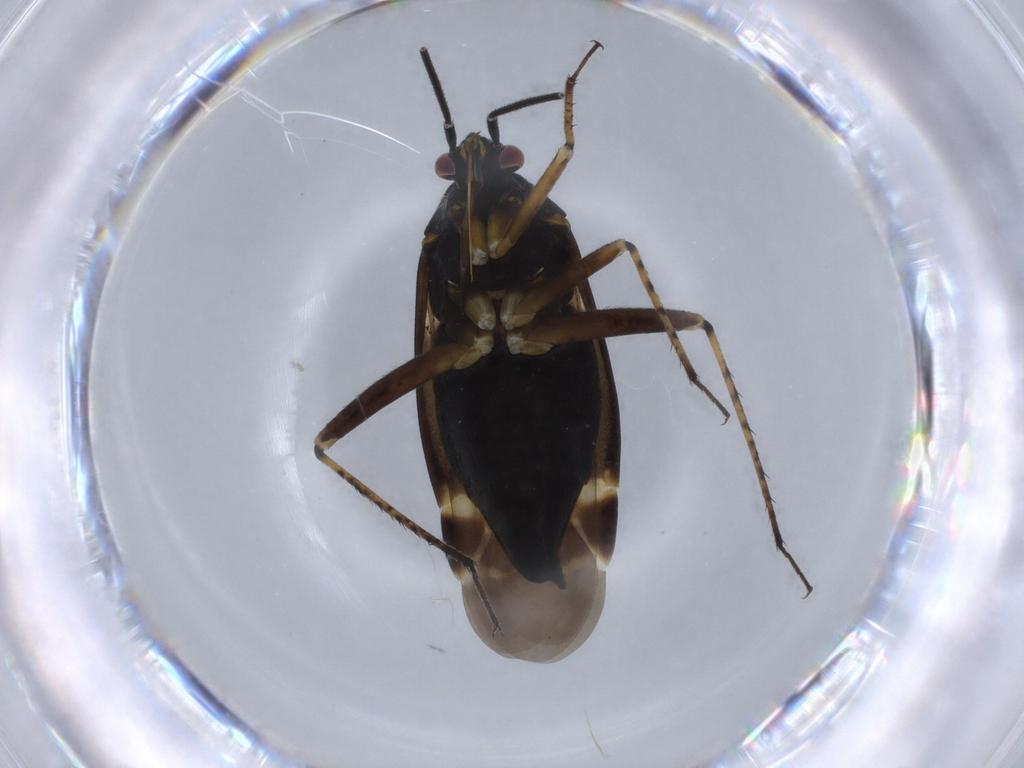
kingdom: Animalia
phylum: Arthropoda
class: Insecta
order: Hemiptera
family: Miridae
